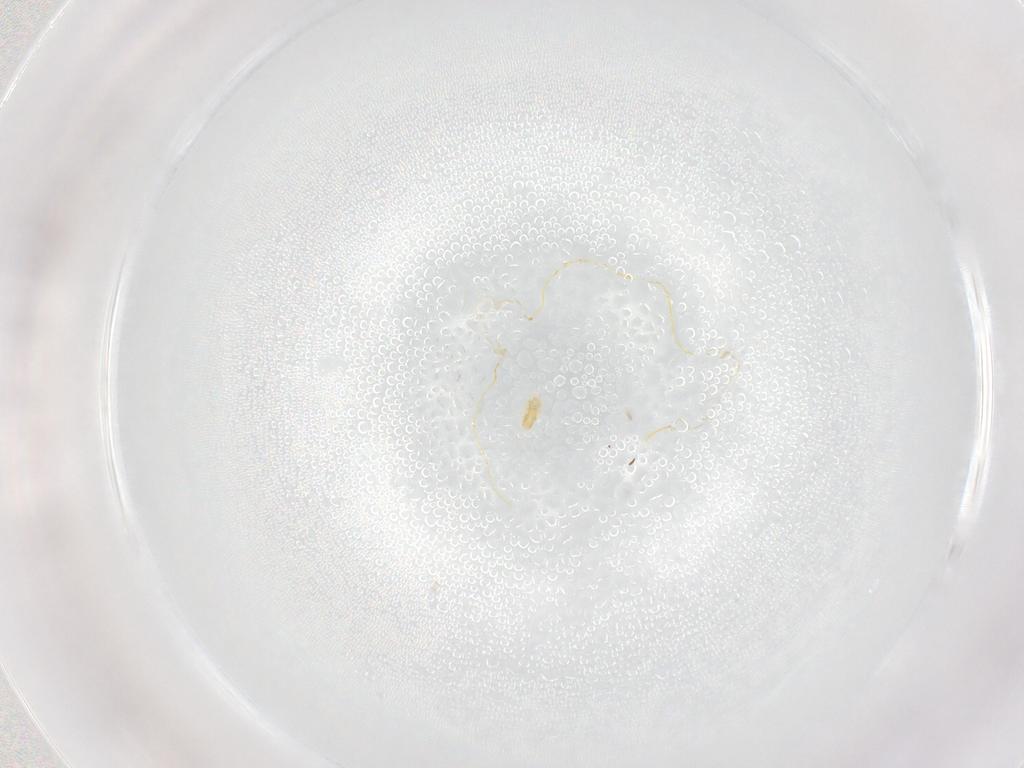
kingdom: Animalia
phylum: Arthropoda
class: Arachnida
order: Trombidiformes
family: Eupodidae
